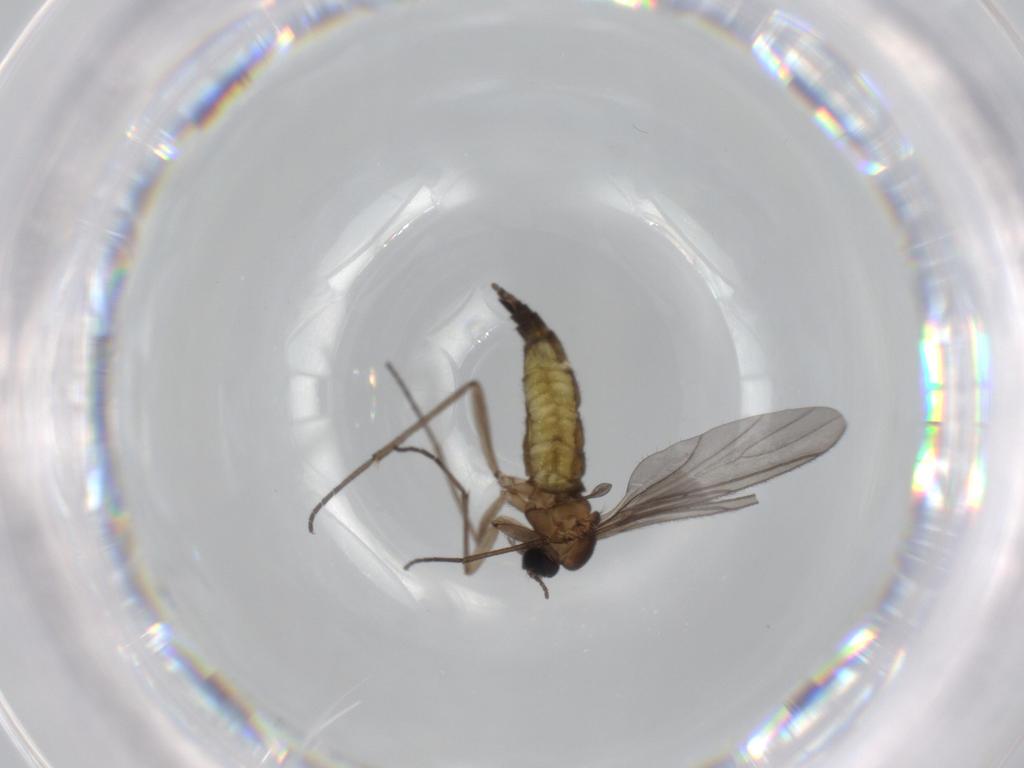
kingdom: Animalia
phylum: Arthropoda
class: Insecta
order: Diptera
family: Sciaridae
